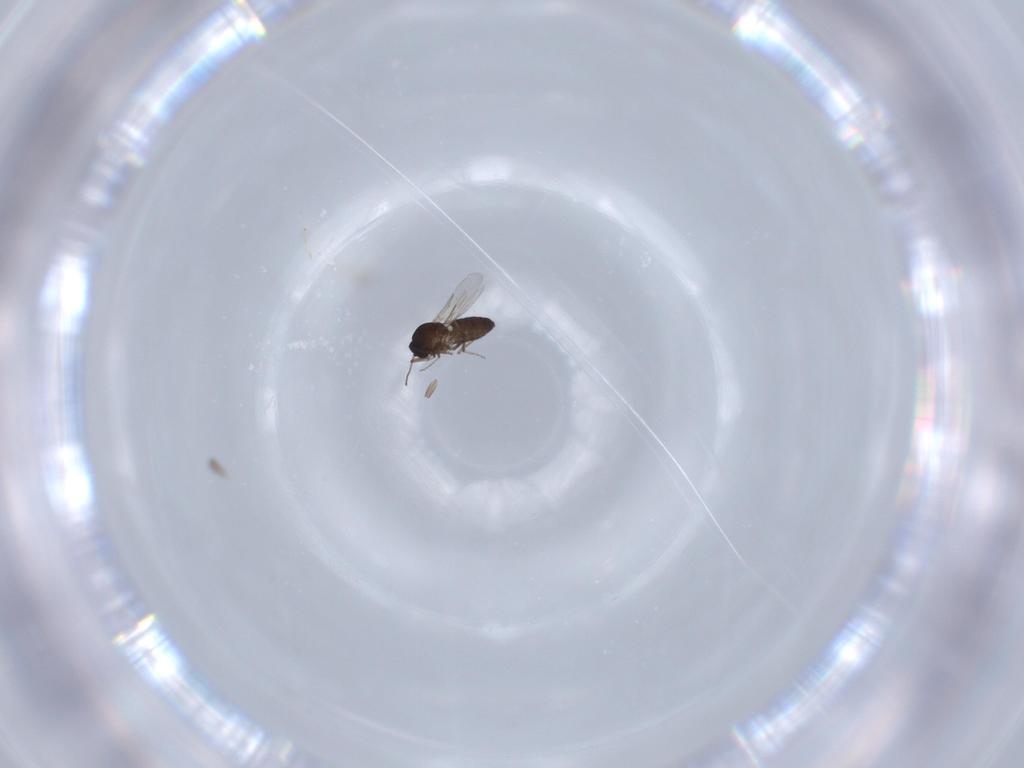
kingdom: Animalia
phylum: Arthropoda
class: Insecta
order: Diptera
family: Ceratopogonidae
